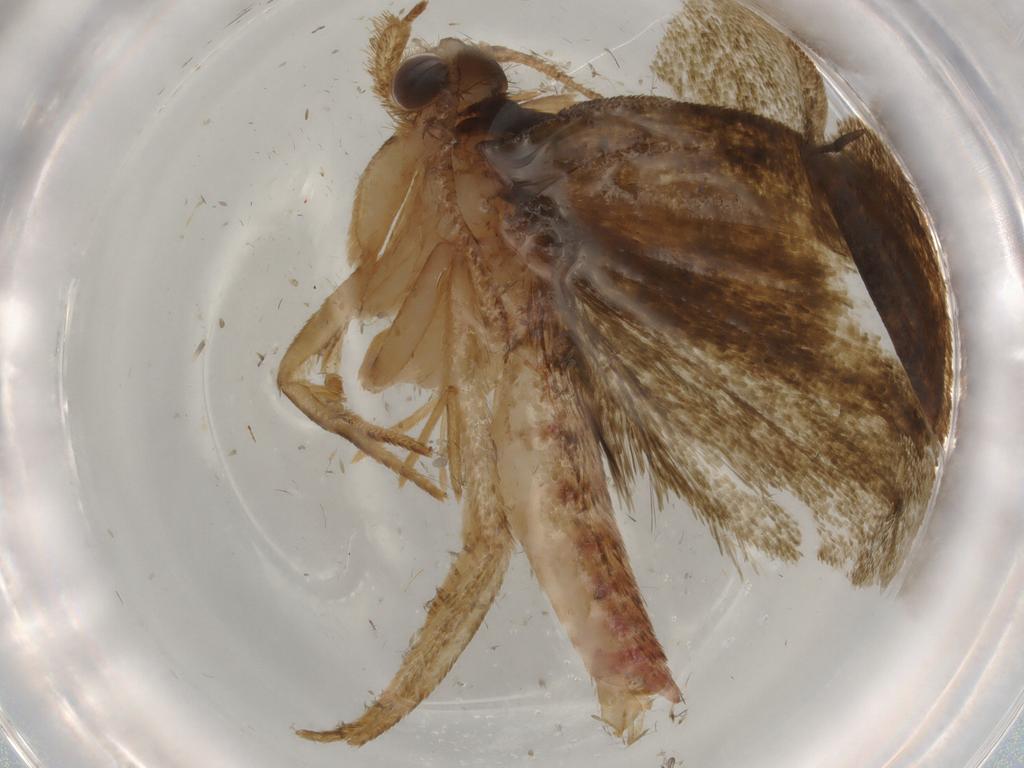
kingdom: Animalia
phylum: Arthropoda
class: Insecta
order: Lepidoptera
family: Geometridae
